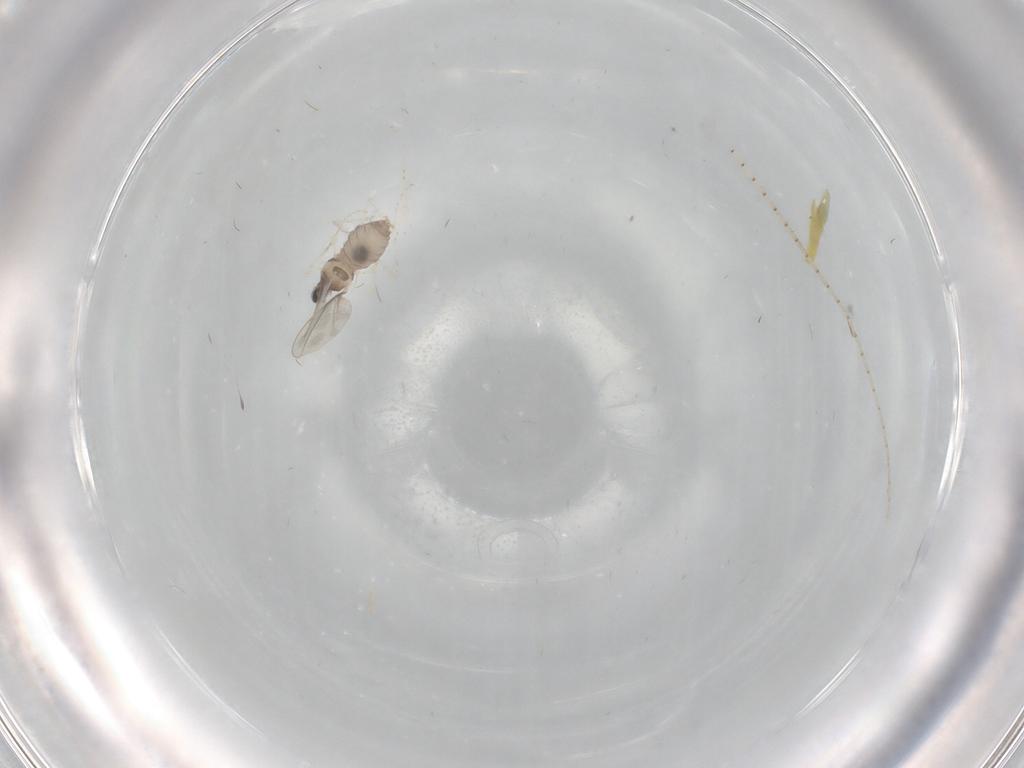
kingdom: Animalia
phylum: Arthropoda
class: Insecta
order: Diptera
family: Cecidomyiidae
